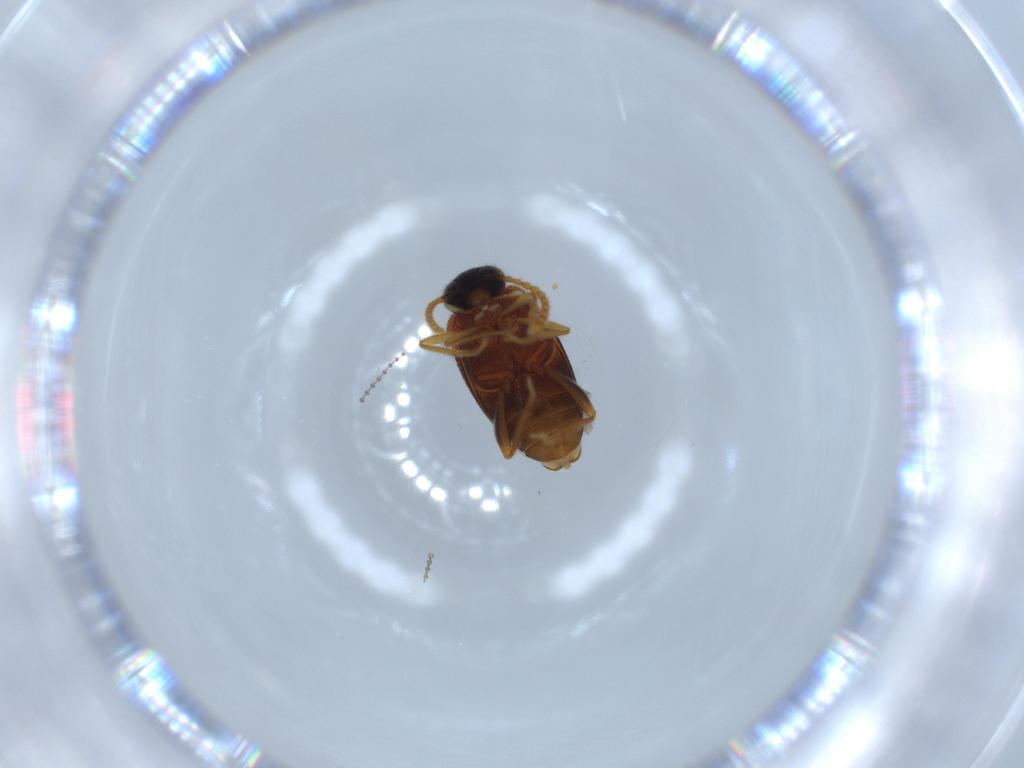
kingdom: Animalia
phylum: Arthropoda
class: Insecta
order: Coleoptera
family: Aderidae
